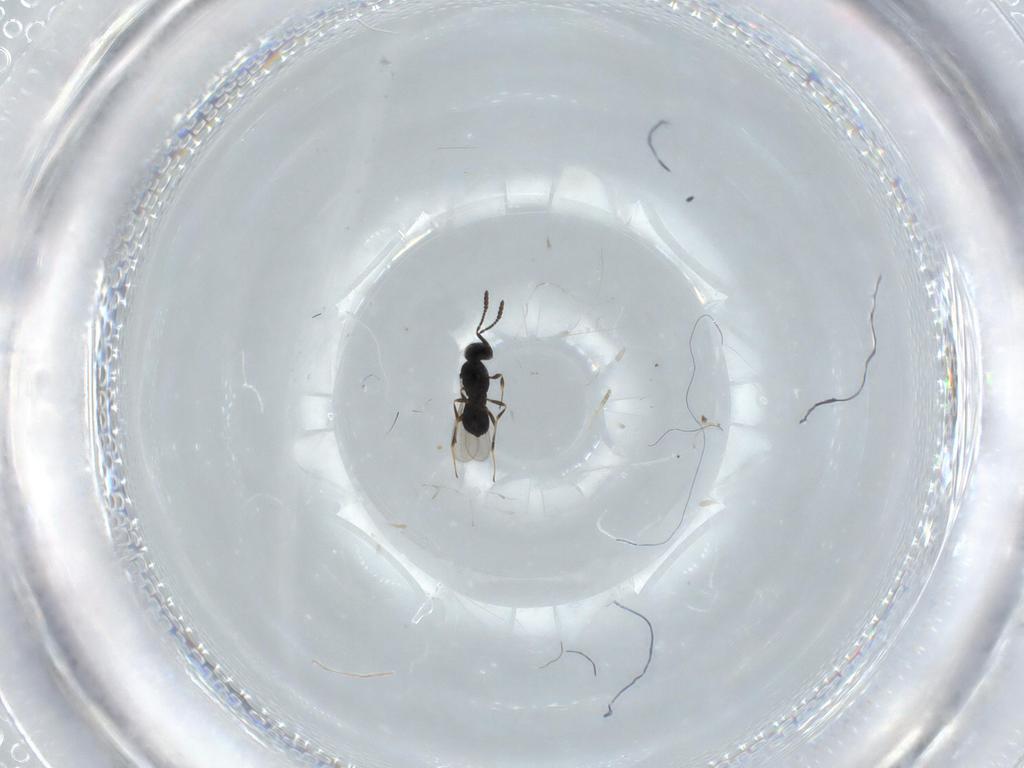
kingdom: Animalia
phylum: Arthropoda
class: Insecta
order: Hymenoptera
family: Scelionidae
